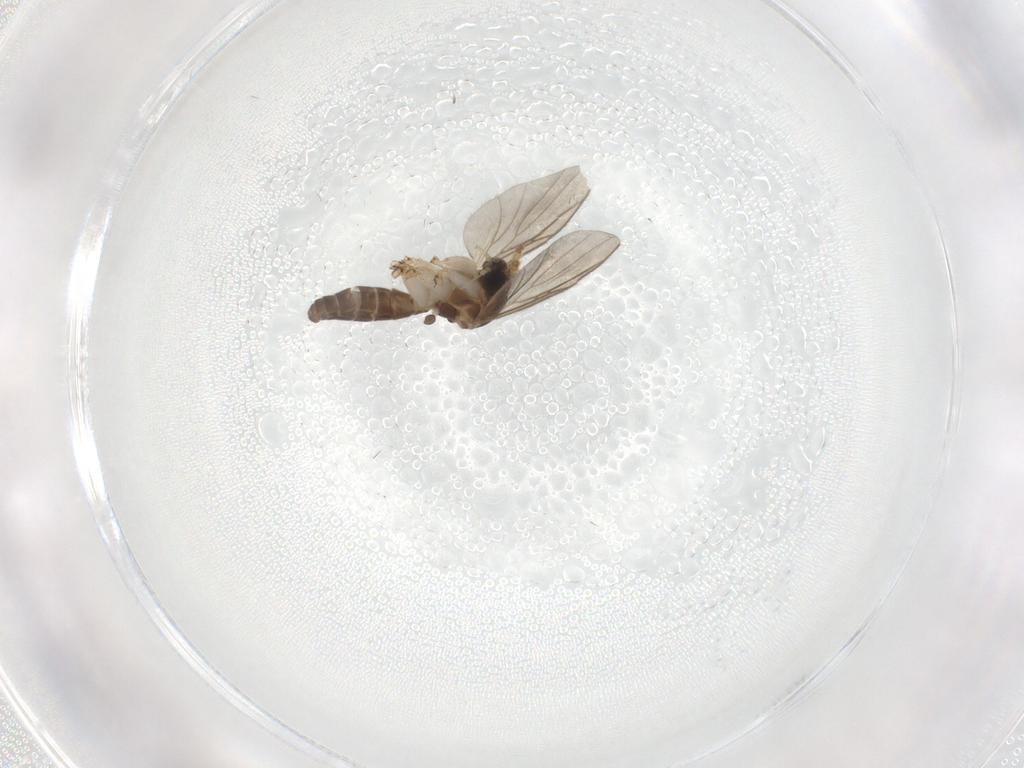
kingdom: Animalia
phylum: Arthropoda
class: Insecta
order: Diptera
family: Mycetophilidae
